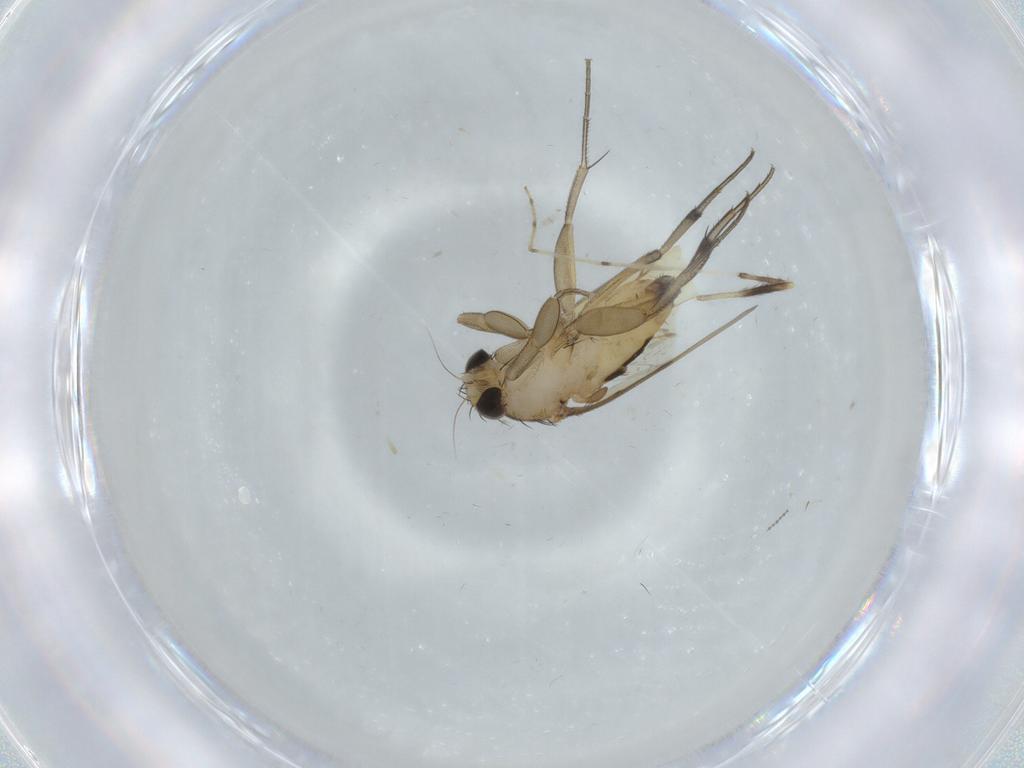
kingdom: Animalia
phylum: Arthropoda
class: Insecta
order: Diptera
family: Phoridae
